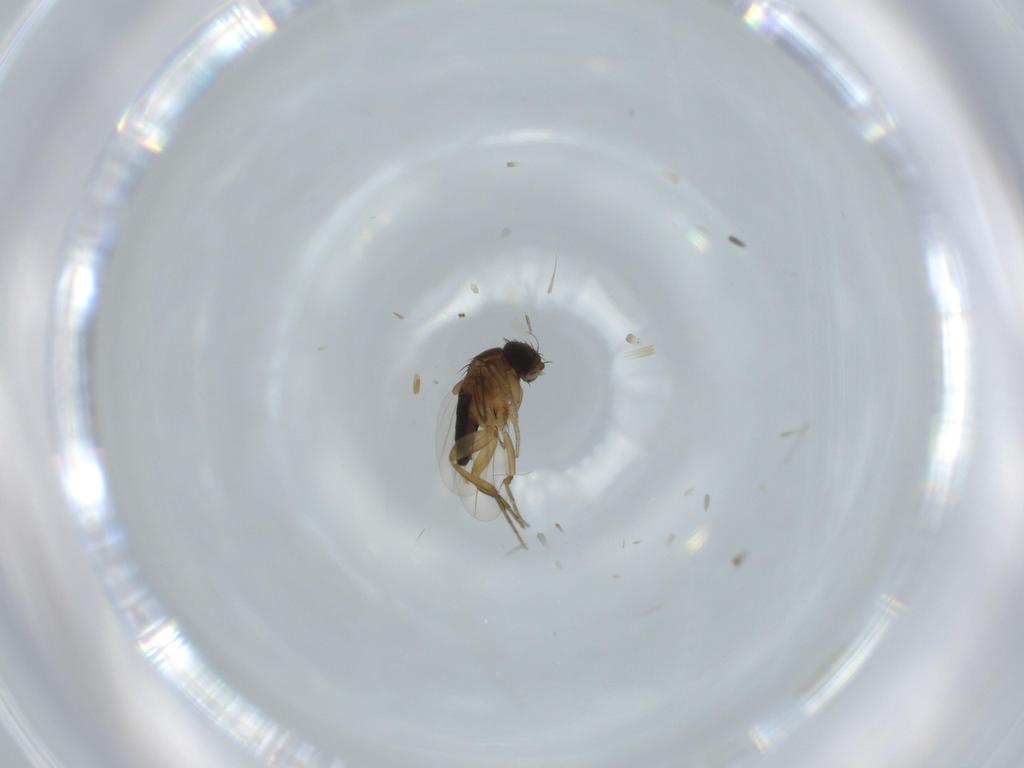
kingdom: Animalia
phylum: Arthropoda
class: Insecta
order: Diptera
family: Phoridae
